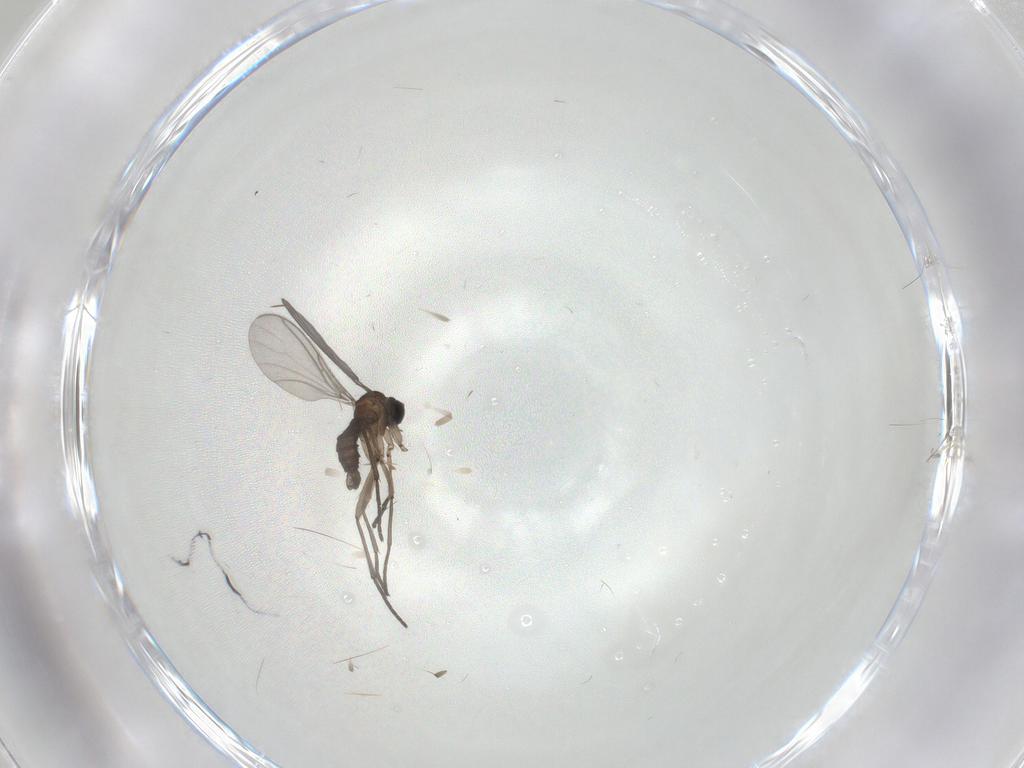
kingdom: Animalia
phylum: Arthropoda
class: Insecta
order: Diptera
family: Sciaridae
